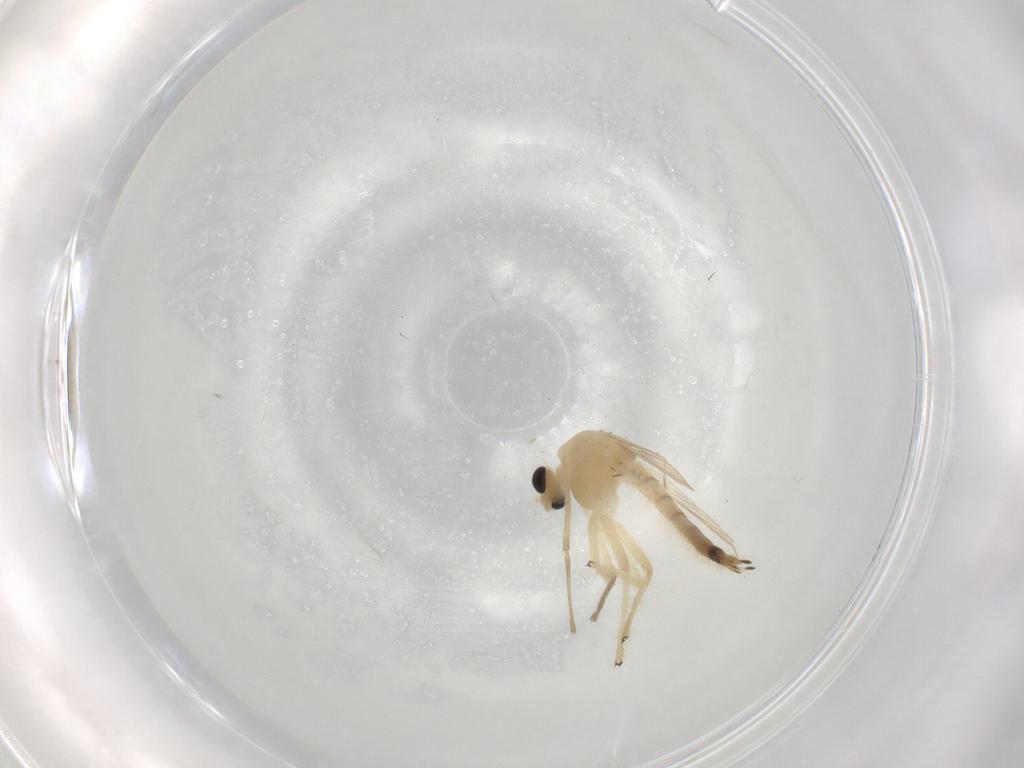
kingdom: Animalia
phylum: Arthropoda
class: Insecta
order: Diptera
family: Chironomidae
